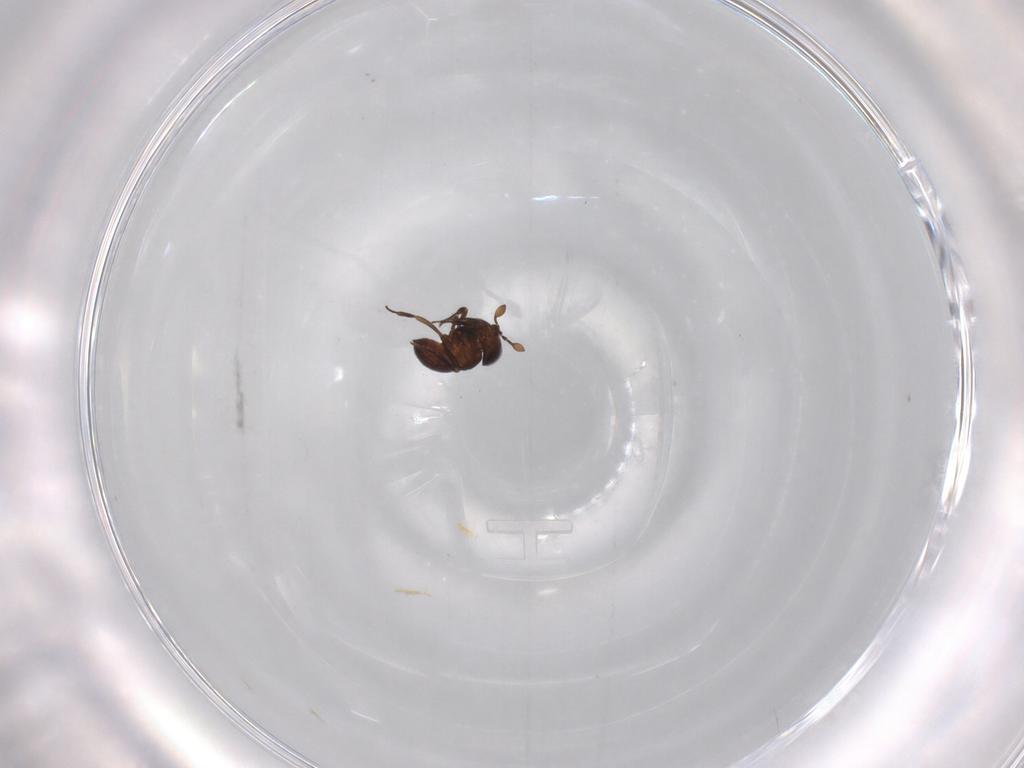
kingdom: Animalia
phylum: Arthropoda
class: Insecta
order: Hymenoptera
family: Scelionidae
